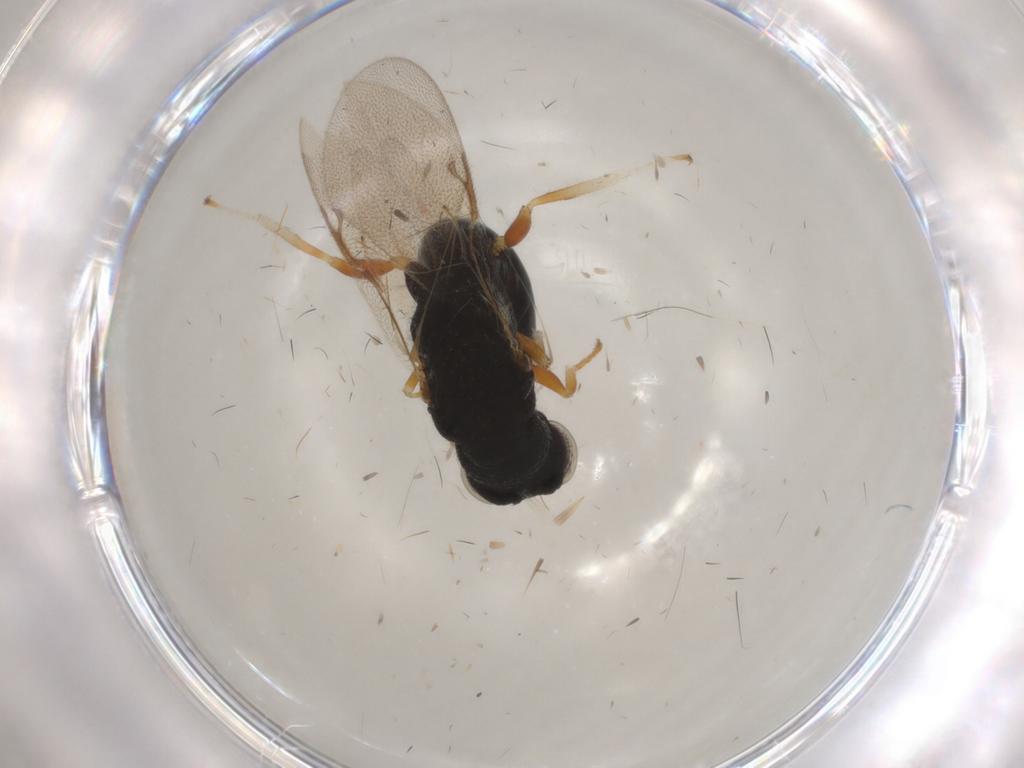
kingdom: Animalia
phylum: Arthropoda
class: Insecta
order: Hymenoptera
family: Eurytomidae
